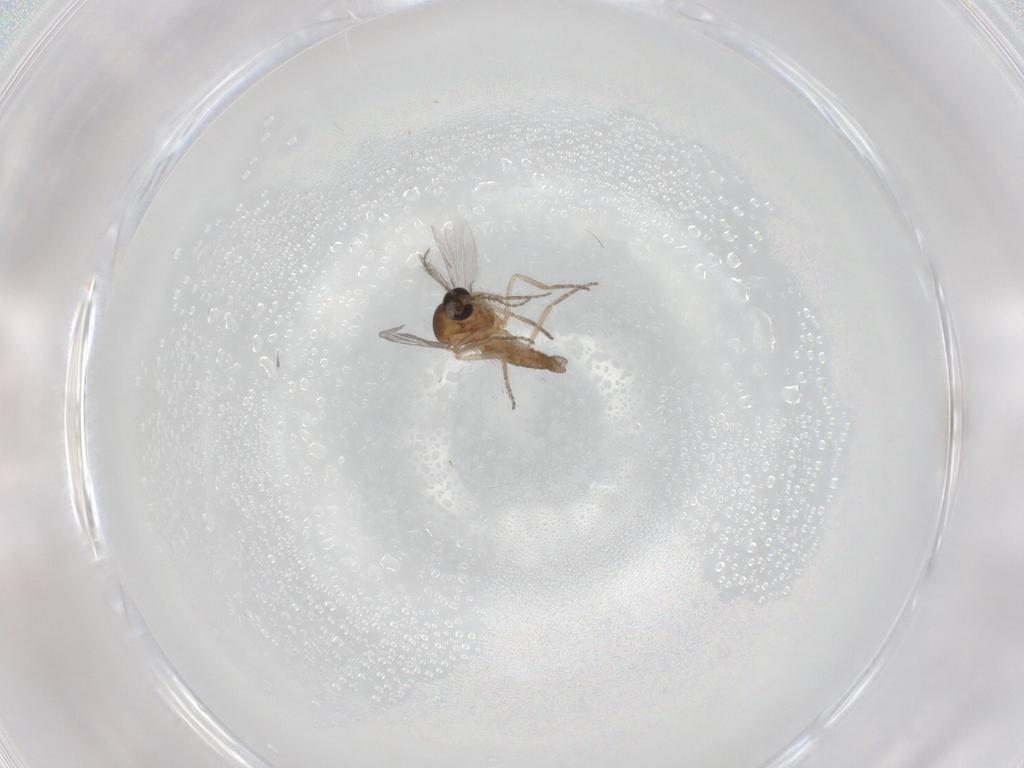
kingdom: Animalia
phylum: Arthropoda
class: Insecta
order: Diptera
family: Ceratopogonidae
